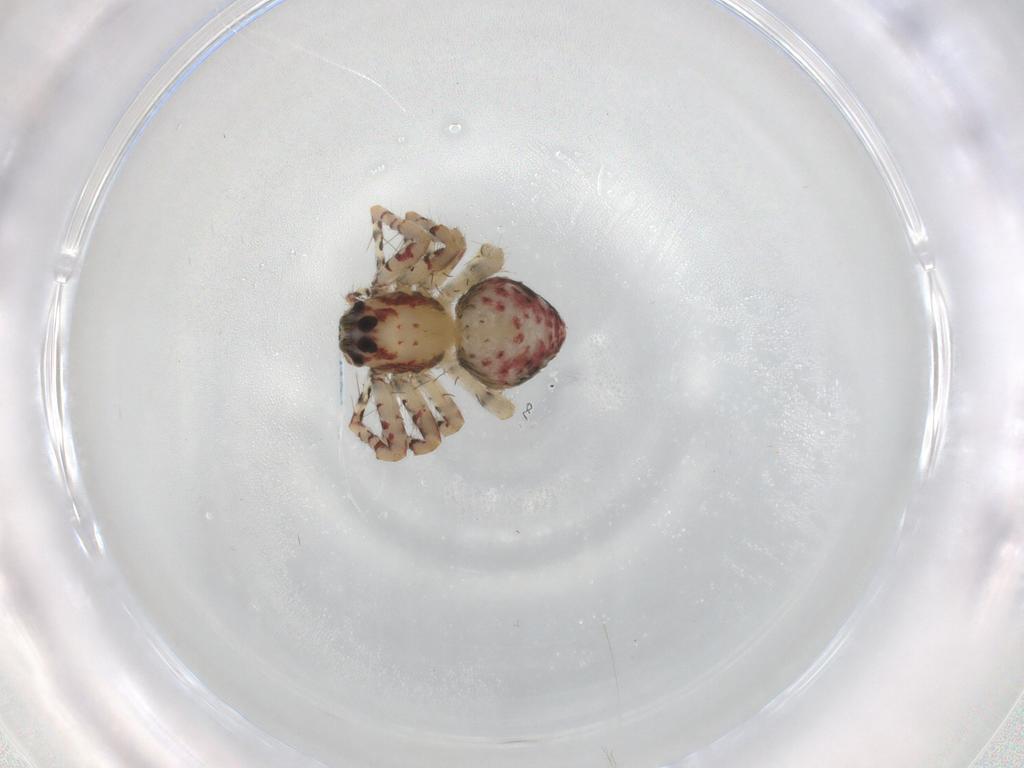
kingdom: Animalia
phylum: Arthropoda
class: Arachnida
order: Araneae
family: Oxyopidae
